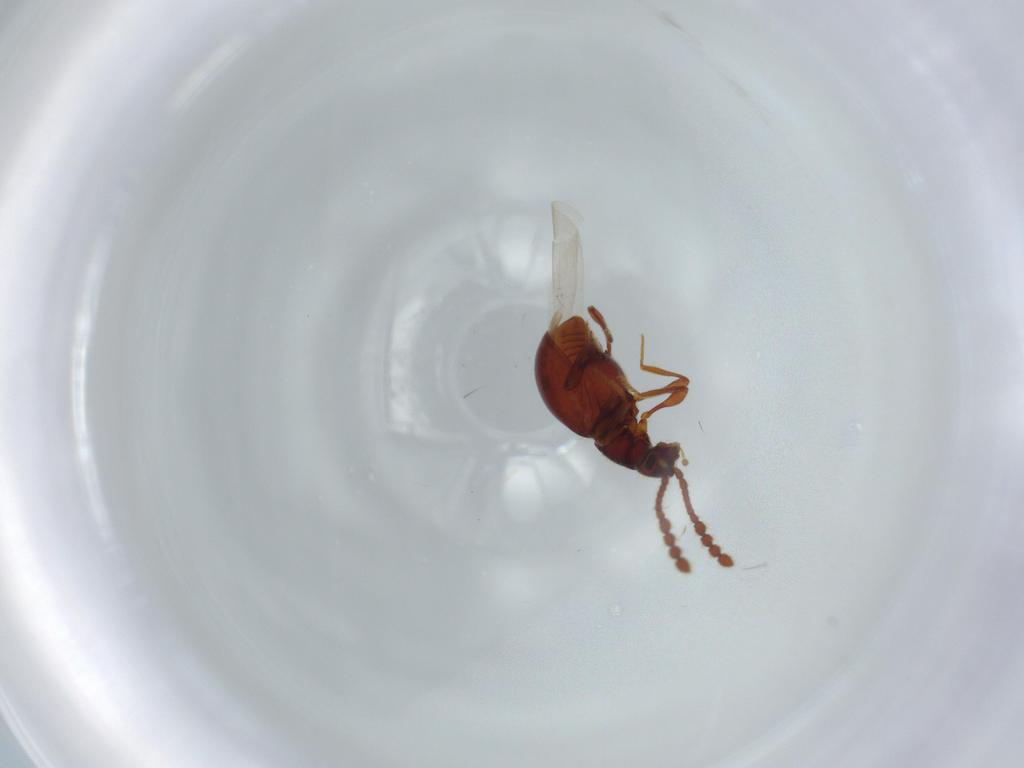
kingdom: Animalia
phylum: Arthropoda
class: Insecta
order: Coleoptera
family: Staphylinidae
